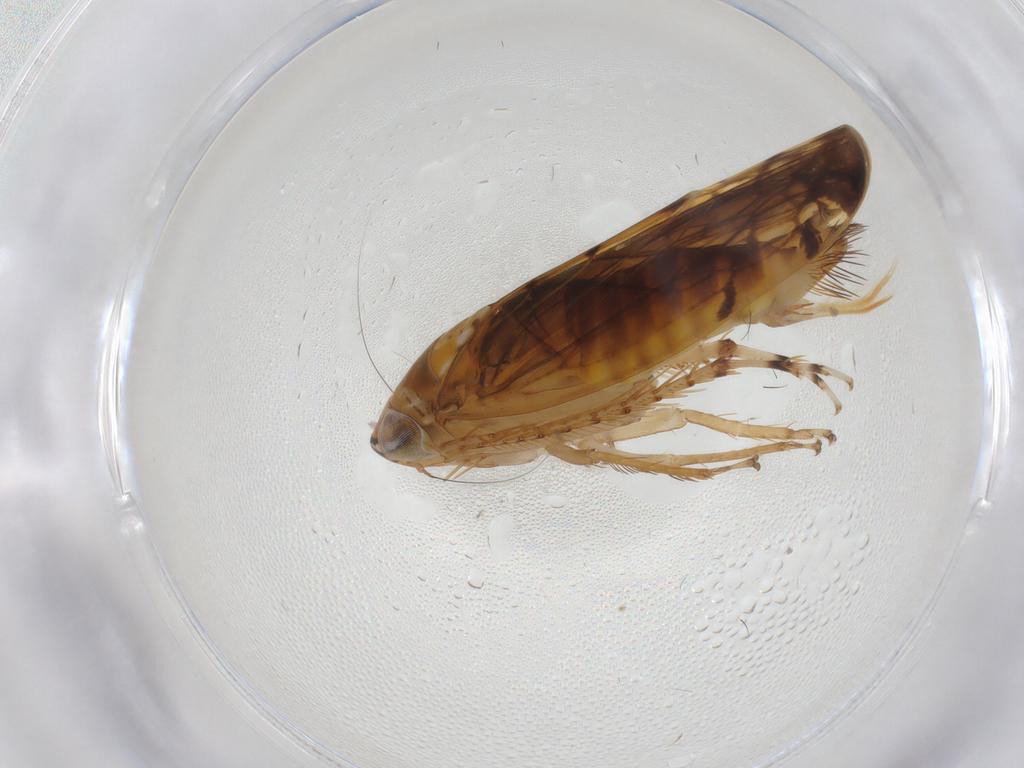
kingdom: Animalia
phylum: Arthropoda
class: Insecta
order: Hemiptera
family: Cicadellidae
